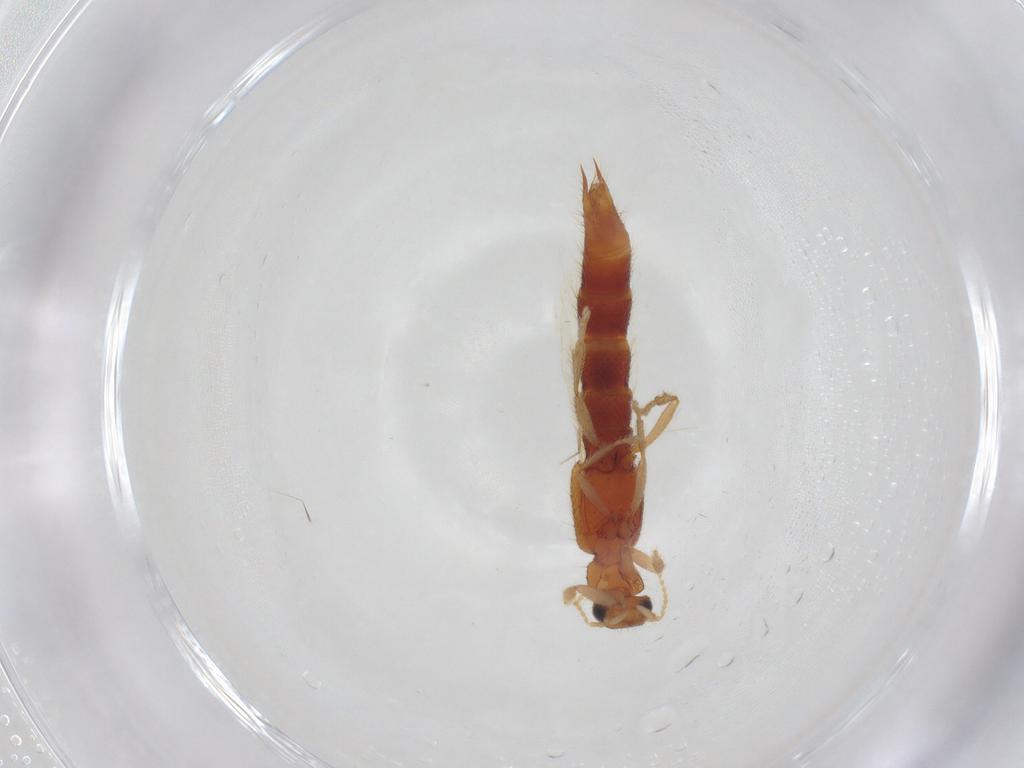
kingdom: Animalia
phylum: Arthropoda
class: Insecta
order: Coleoptera
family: Staphylinidae
